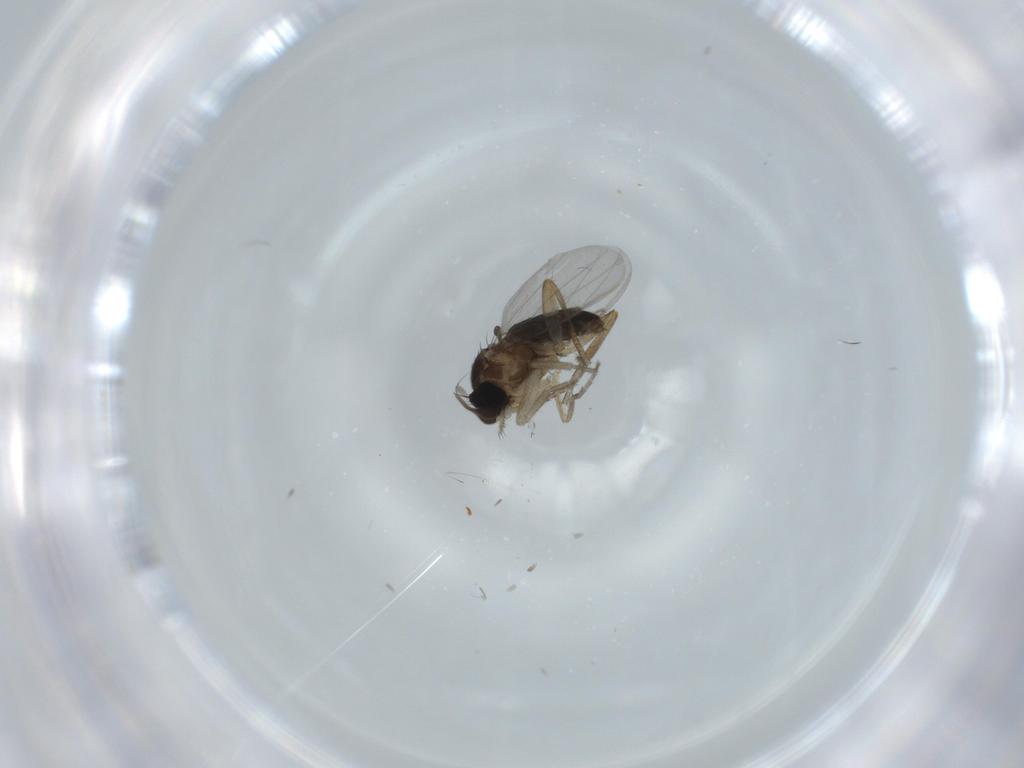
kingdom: Animalia
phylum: Arthropoda
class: Insecta
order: Diptera
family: Phoridae
